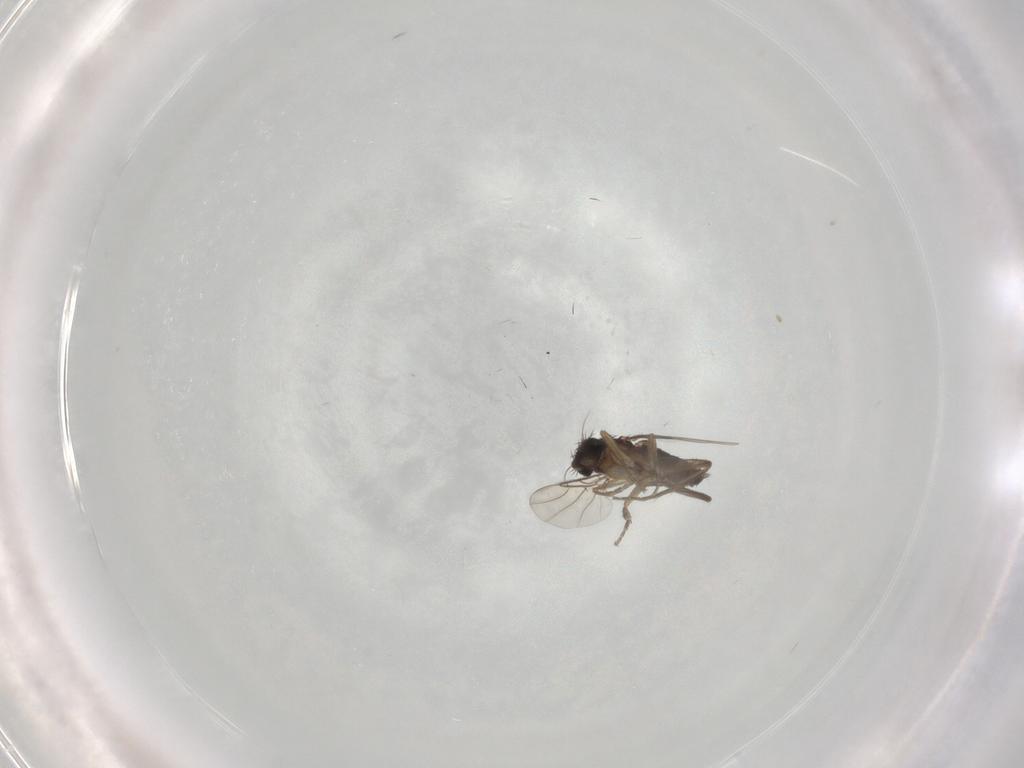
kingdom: Animalia
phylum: Arthropoda
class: Insecta
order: Diptera
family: Phoridae
